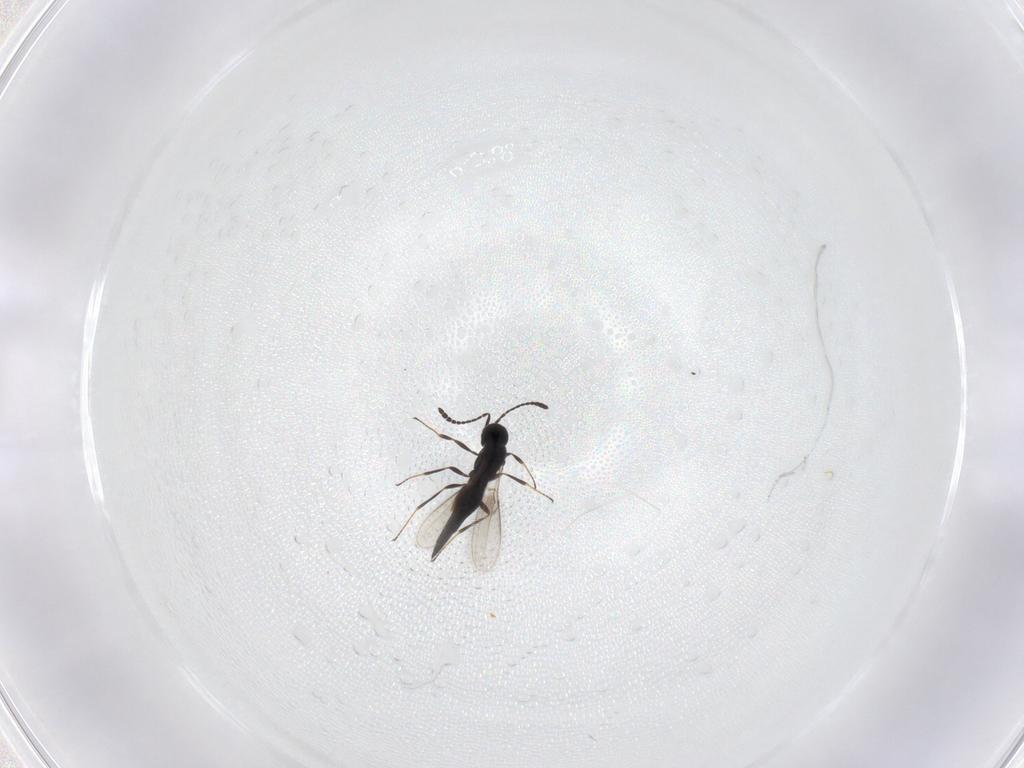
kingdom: Animalia
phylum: Arthropoda
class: Insecta
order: Hymenoptera
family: Scelionidae
